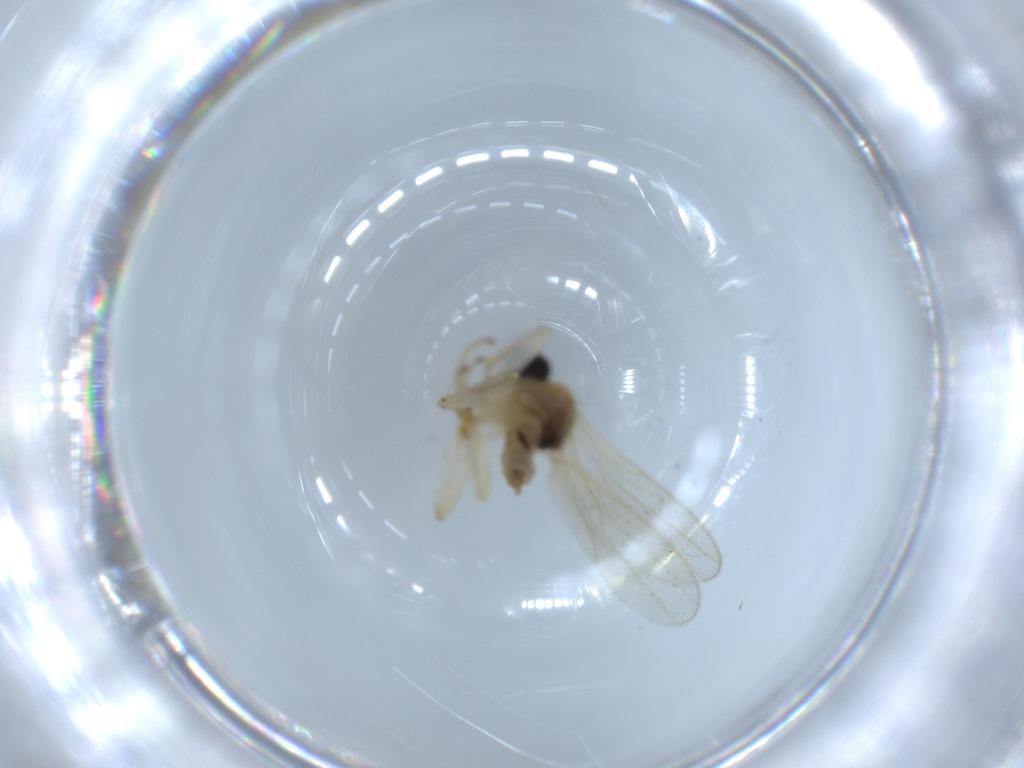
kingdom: Animalia
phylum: Arthropoda
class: Insecta
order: Diptera
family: Hybotidae
